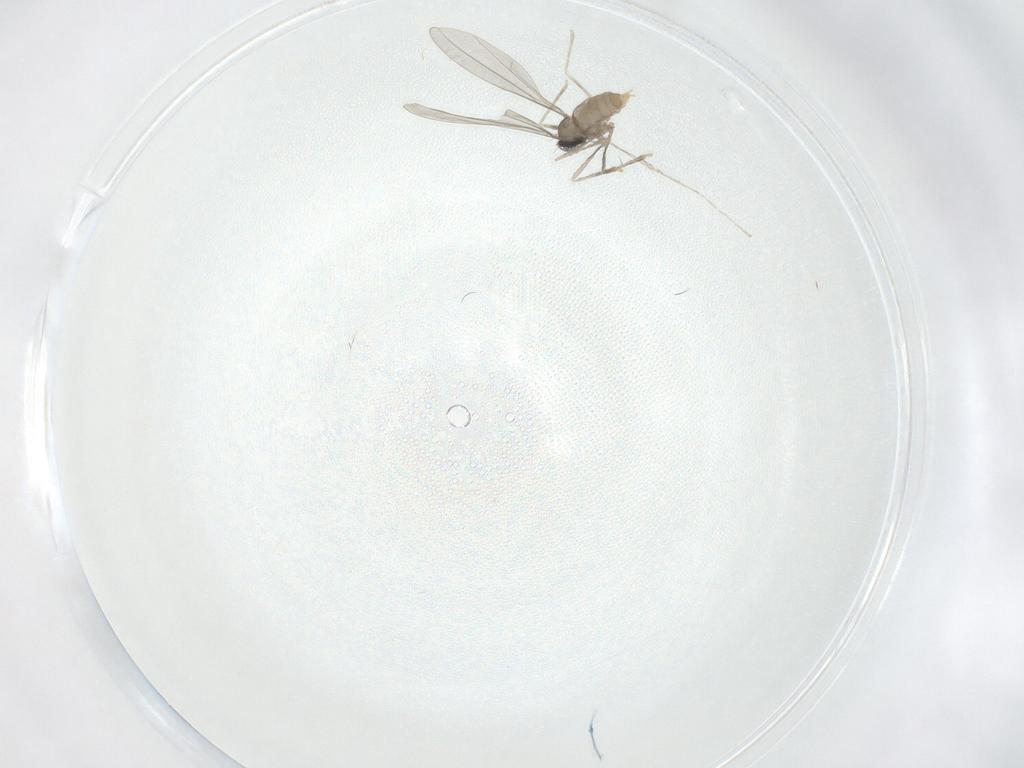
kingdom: Animalia
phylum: Arthropoda
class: Insecta
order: Diptera
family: Cecidomyiidae
